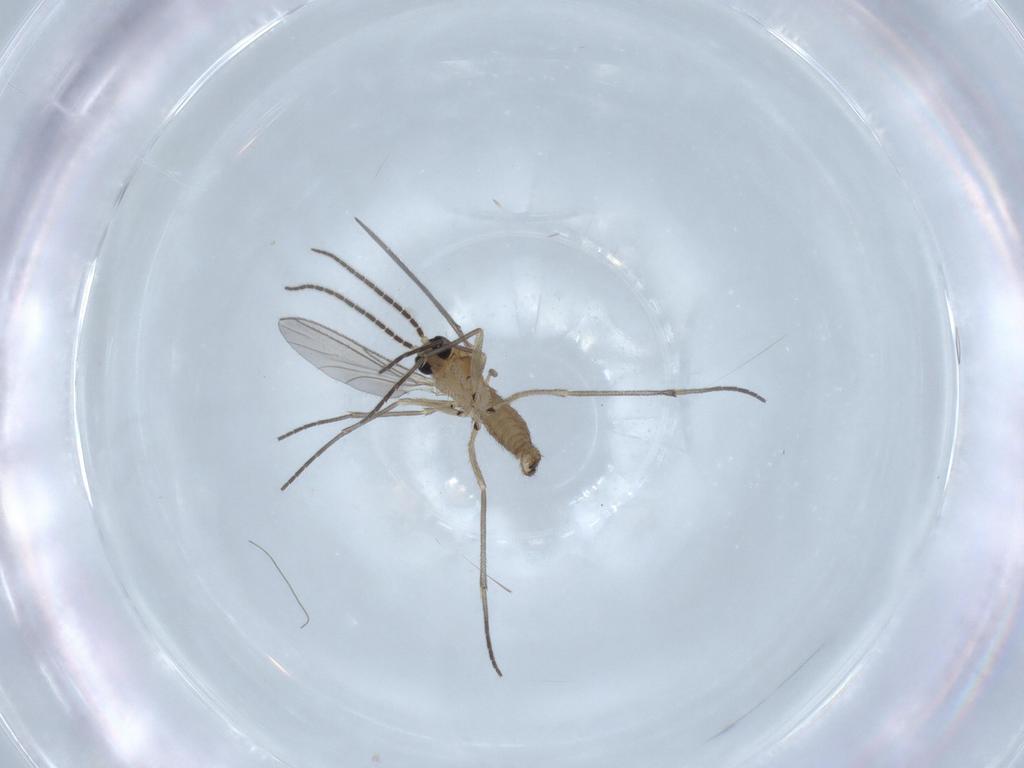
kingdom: Animalia
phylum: Arthropoda
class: Insecta
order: Diptera
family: Sciaridae
